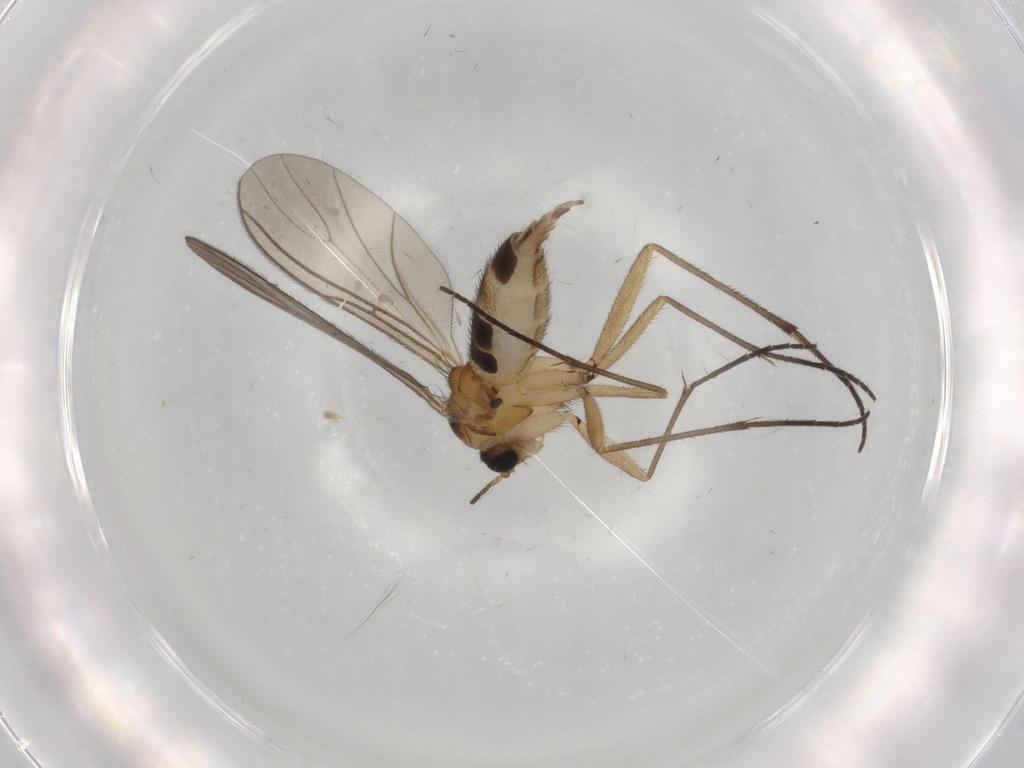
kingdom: Animalia
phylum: Arthropoda
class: Insecta
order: Diptera
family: Sciaridae
